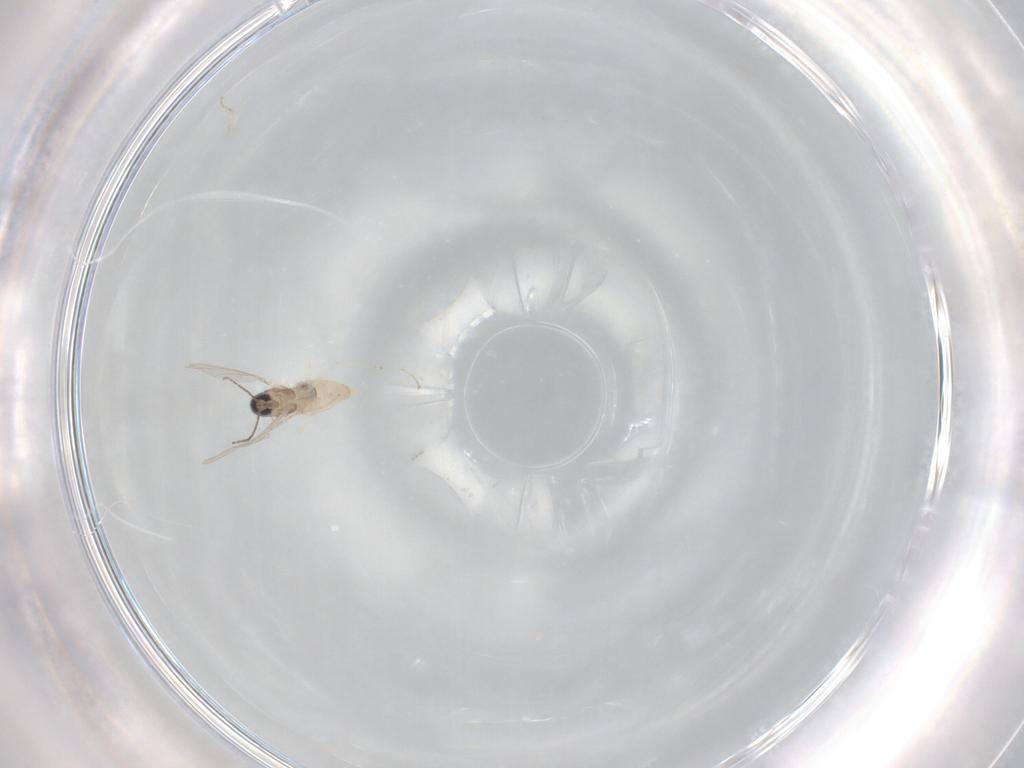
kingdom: Animalia
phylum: Arthropoda
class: Insecta
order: Diptera
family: Cecidomyiidae
